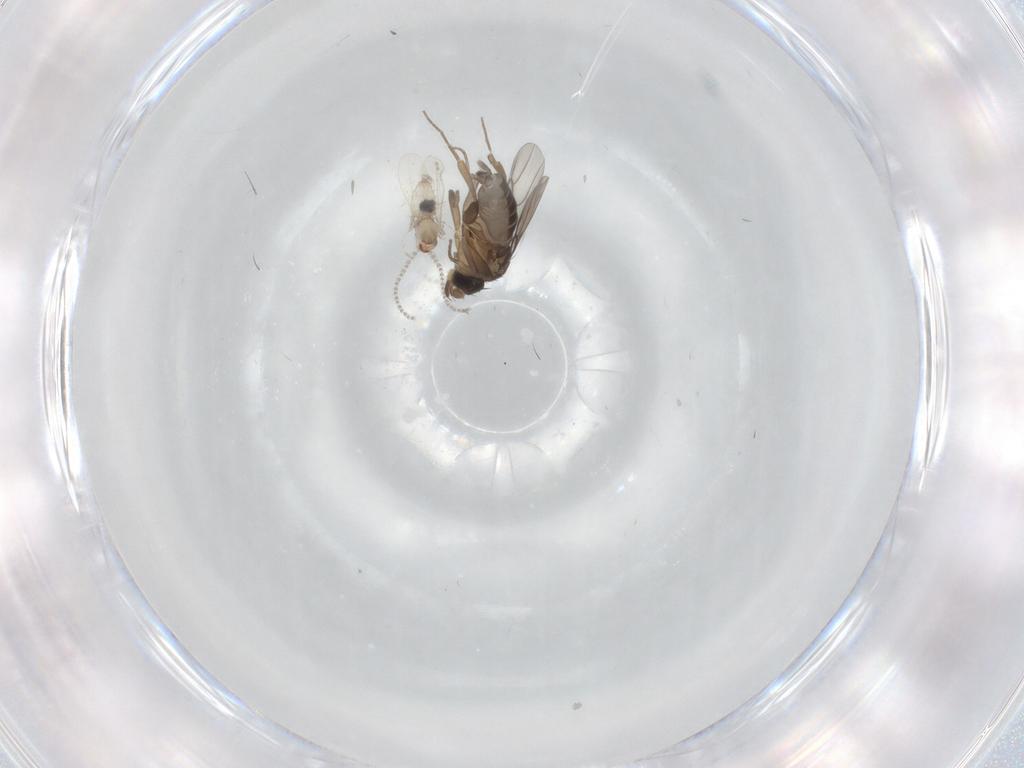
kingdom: Animalia
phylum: Arthropoda
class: Insecta
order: Diptera
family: Phoridae
